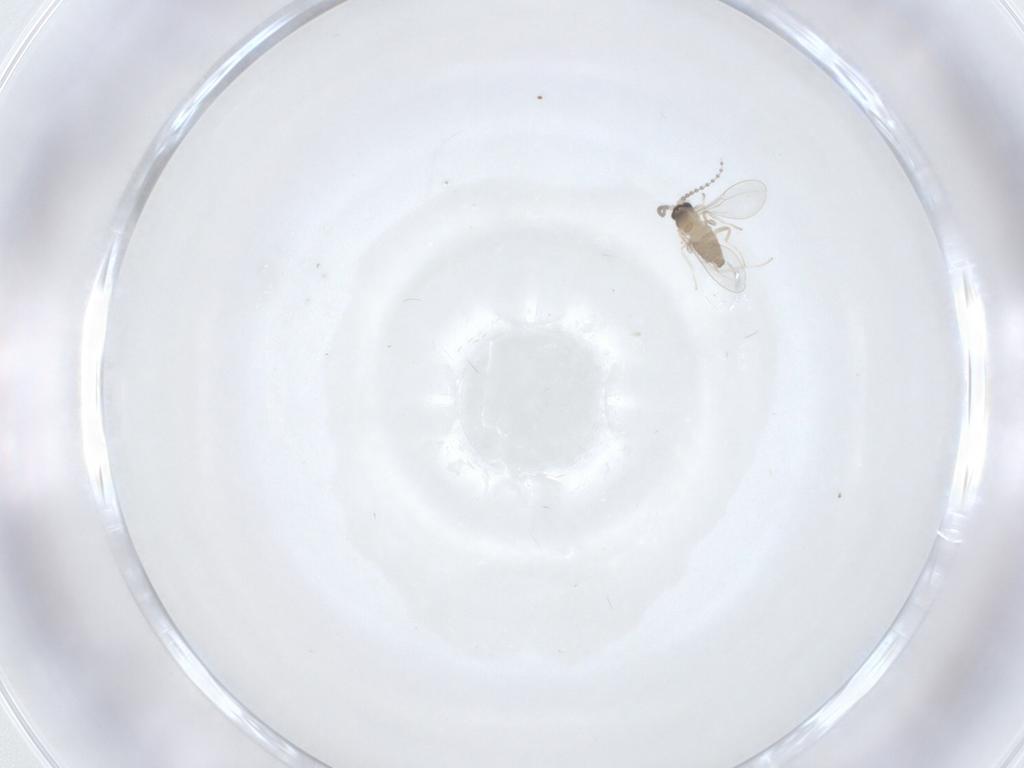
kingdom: Animalia
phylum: Arthropoda
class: Insecta
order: Diptera
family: Cecidomyiidae
